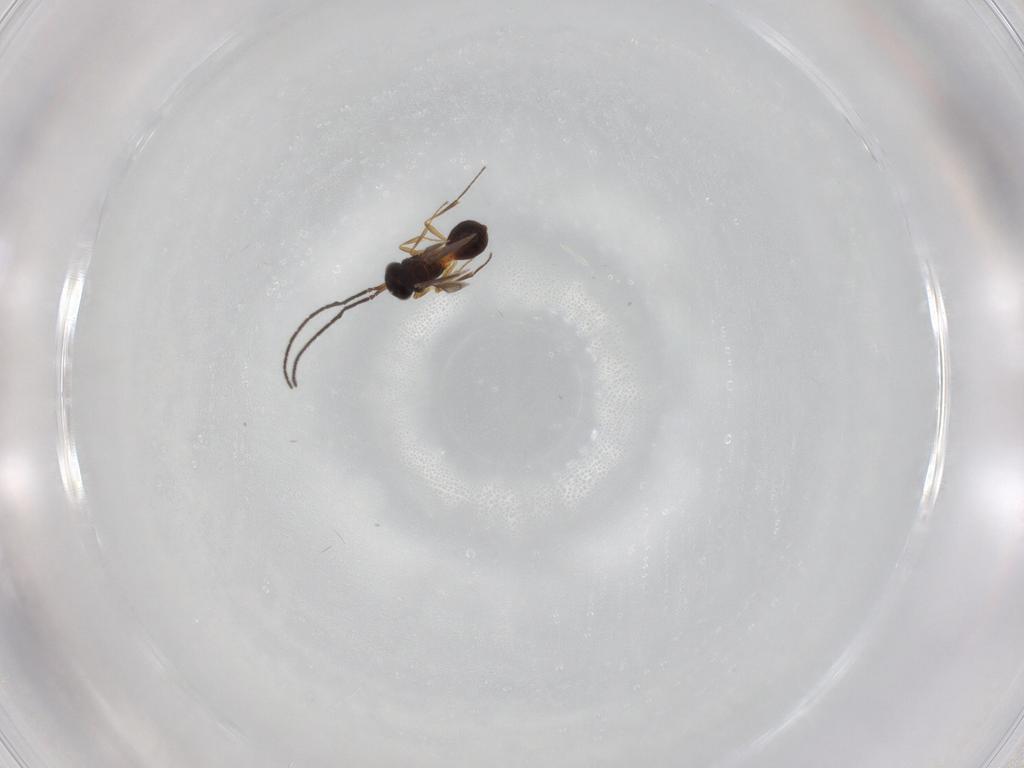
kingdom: Animalia
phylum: Arthropoda
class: Insecta
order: Hymenoptera
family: Scelionidae
